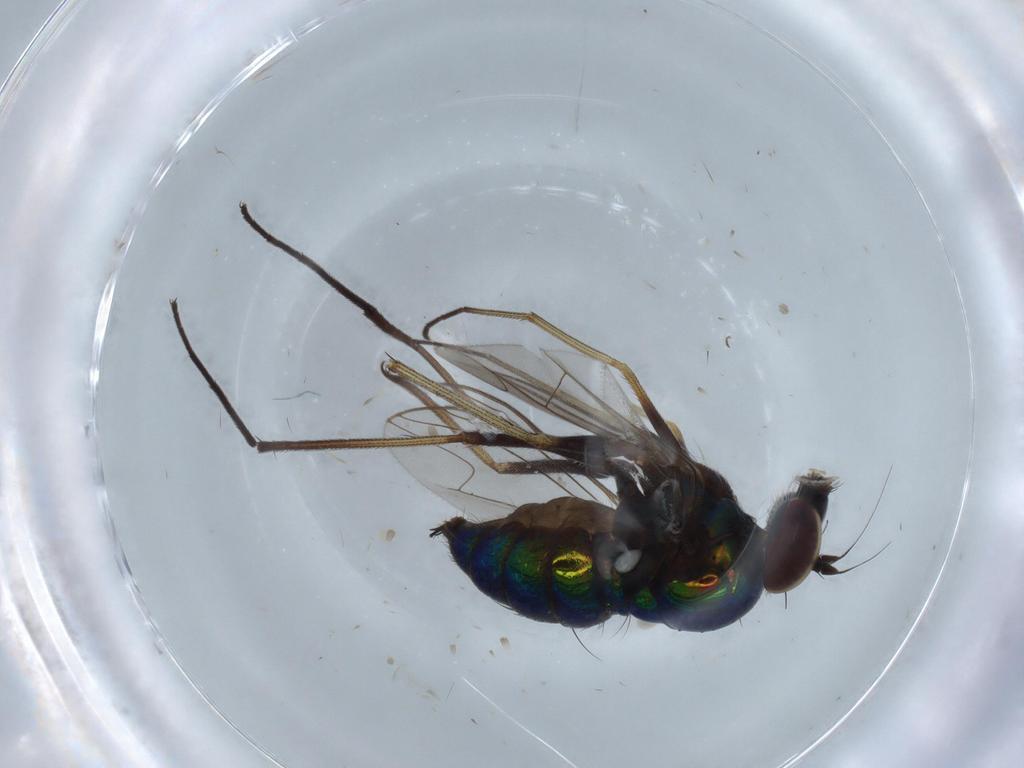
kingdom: Animalia
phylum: Arthropoda
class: Insecta
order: Diptera
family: Dolichopodidae
